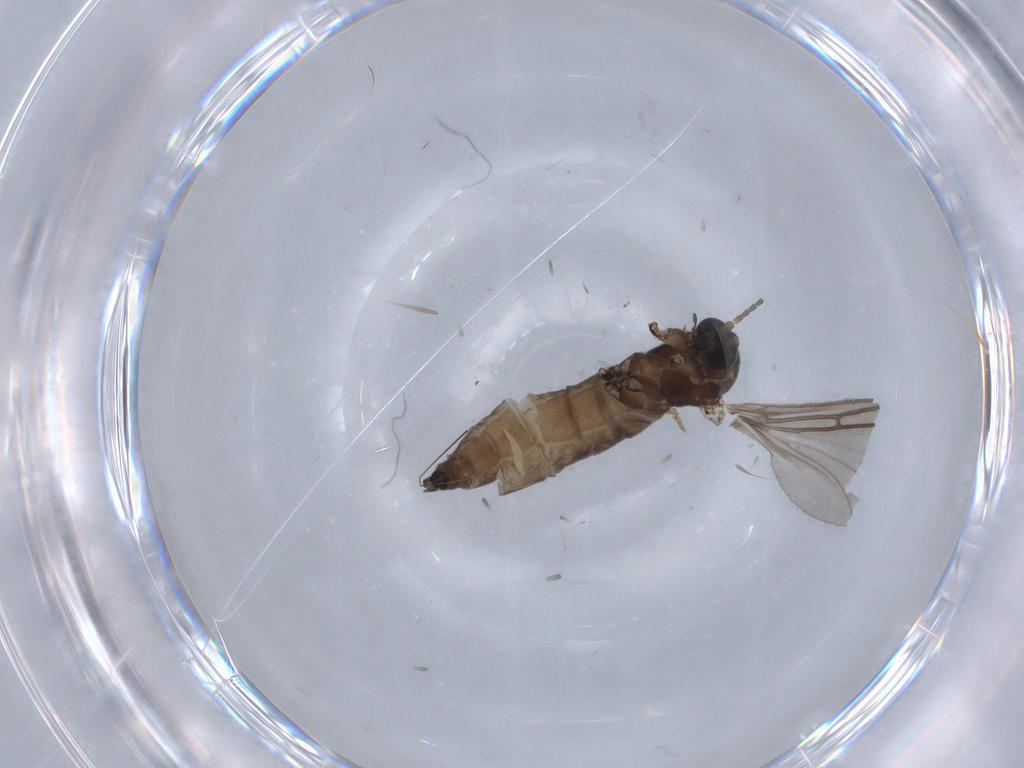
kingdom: Animalia
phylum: Arthropoda
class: Insecta
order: Diptera
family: Sciaridae
